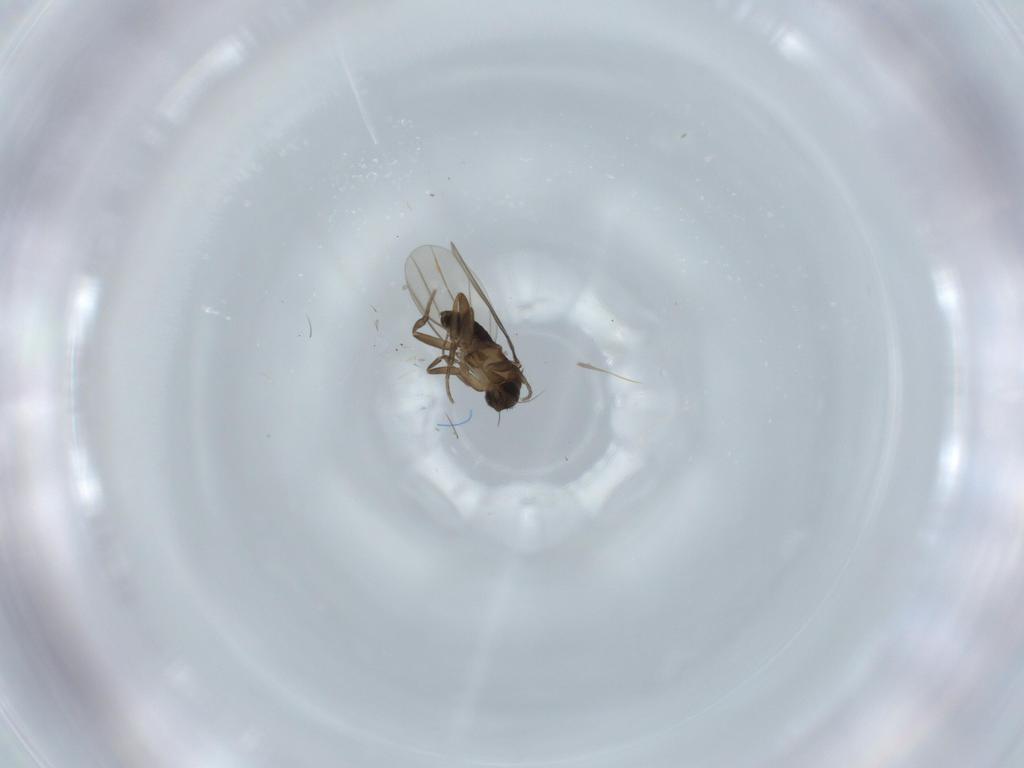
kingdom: Animalia
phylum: Arthropoda
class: Insecta
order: Diptera
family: Phoridae
